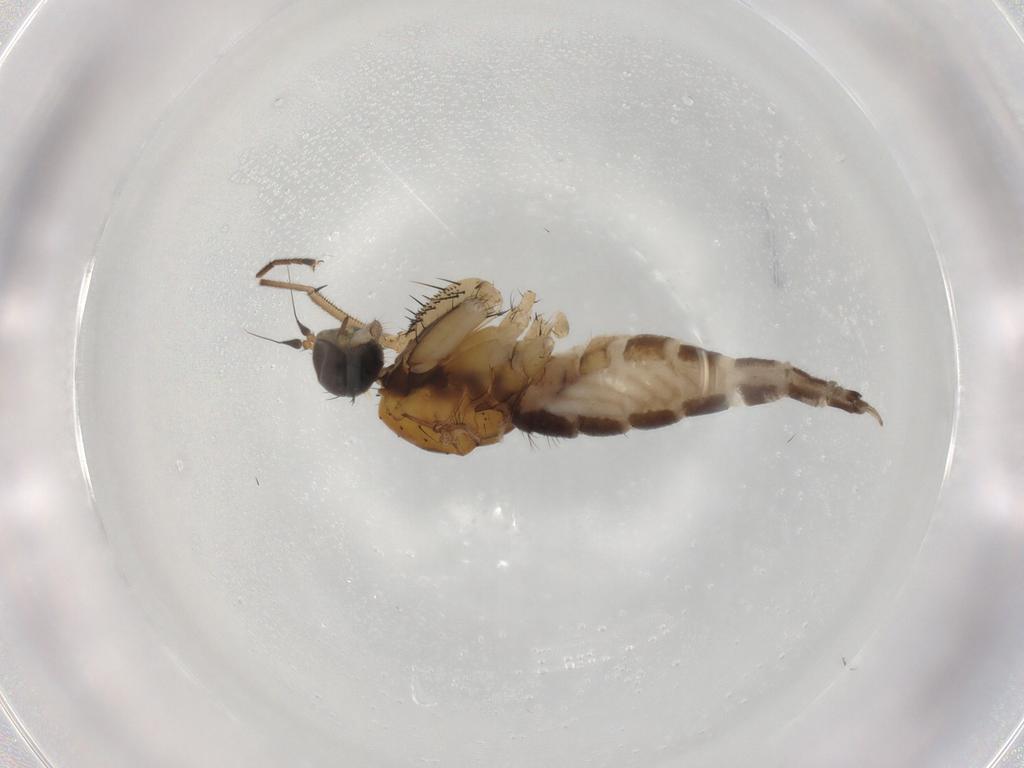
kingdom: Animalia
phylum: Arthropoda
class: Insecta
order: Diptera
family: Empididae
